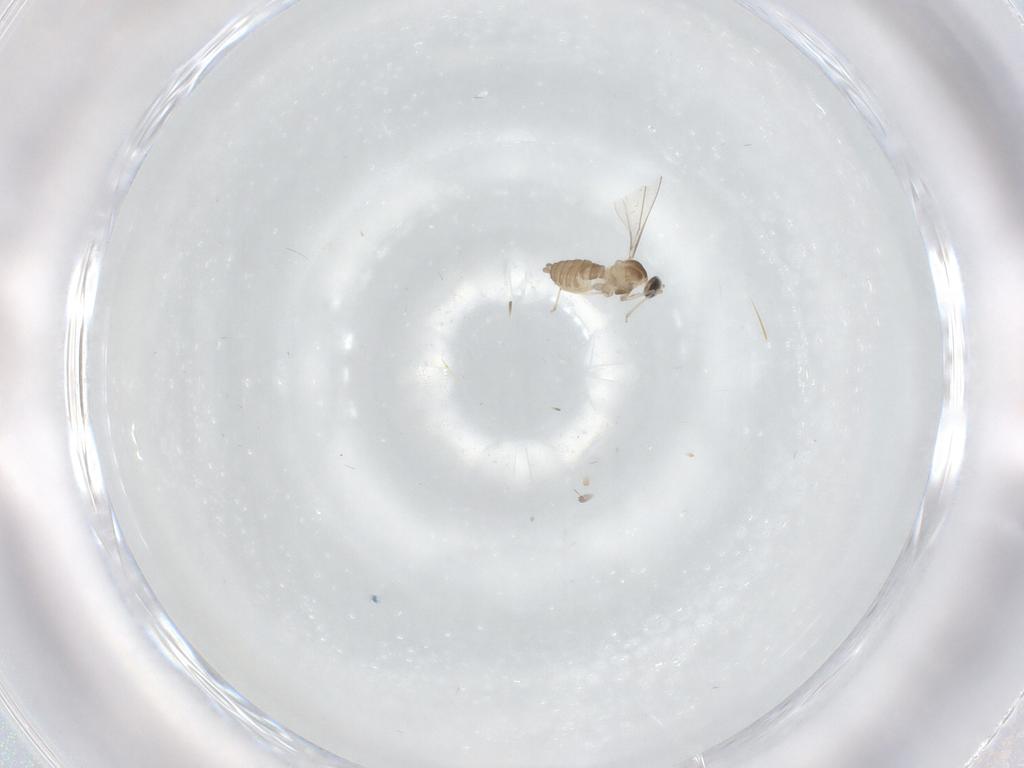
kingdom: Animalia
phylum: Arthropoda
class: Insecta
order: Diptera
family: Cecidomyiidae
